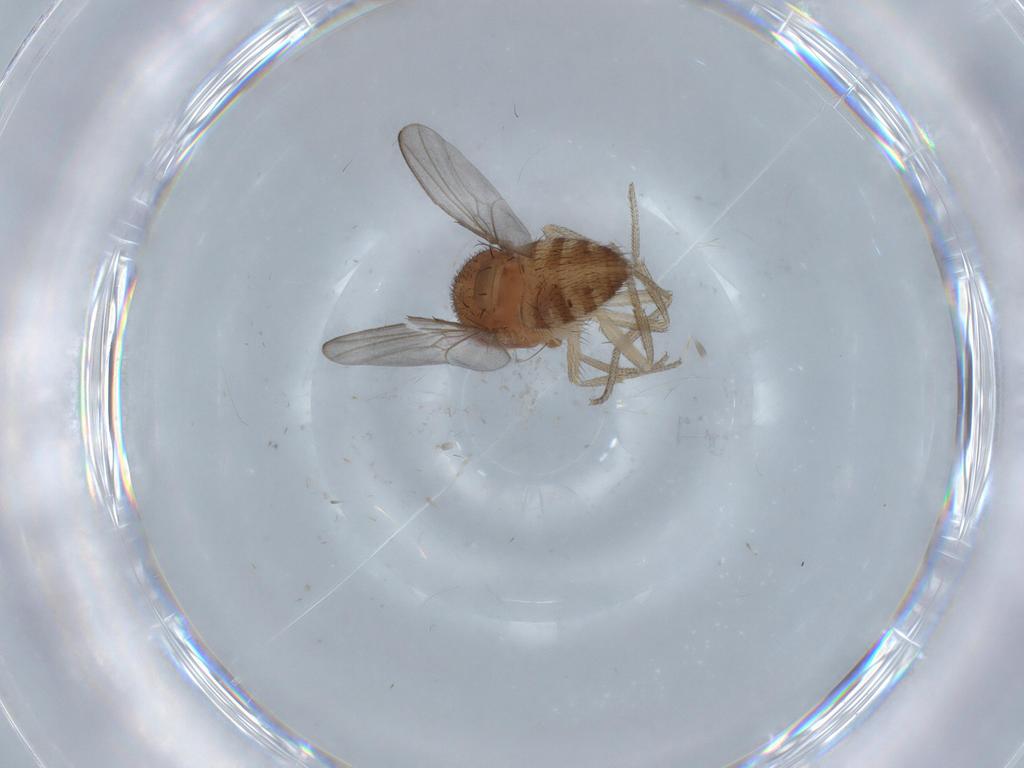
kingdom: Animalia
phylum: Arthropoda
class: Insecta
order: Diptera
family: Drosophilidae
